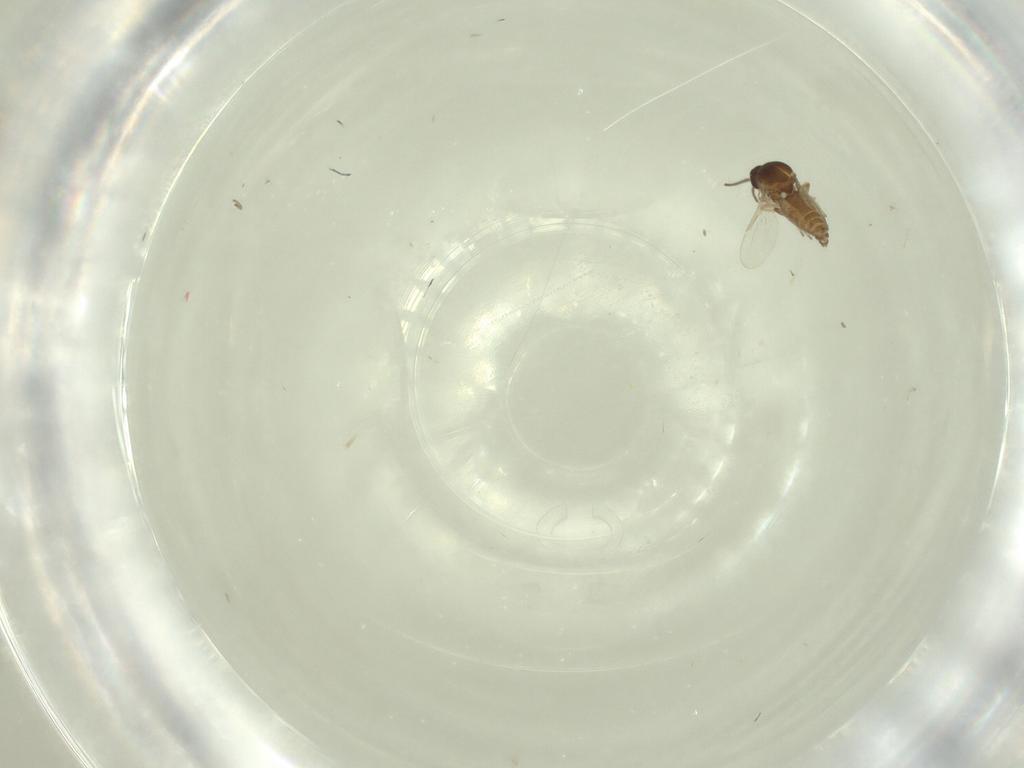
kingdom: Animalia
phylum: Arthropoda
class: Insecta
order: Diptera
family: Ceratopogonidae
